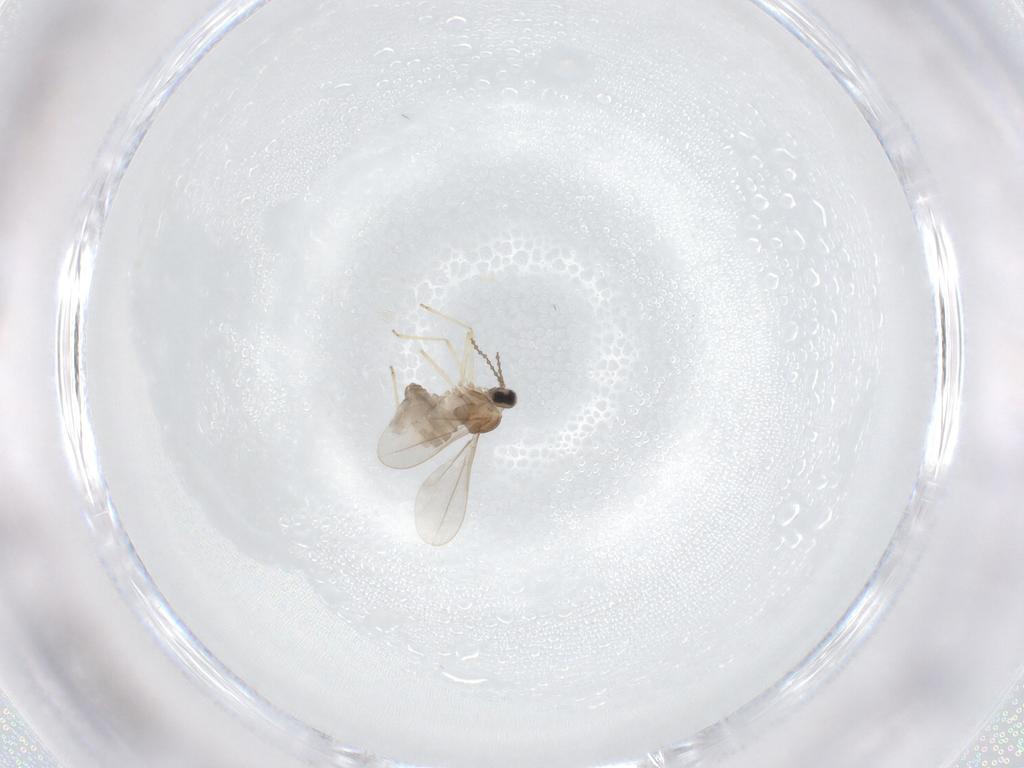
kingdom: Animalia
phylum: Arthropoda
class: Insecta
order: Diptera
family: Cecidomyiidae
